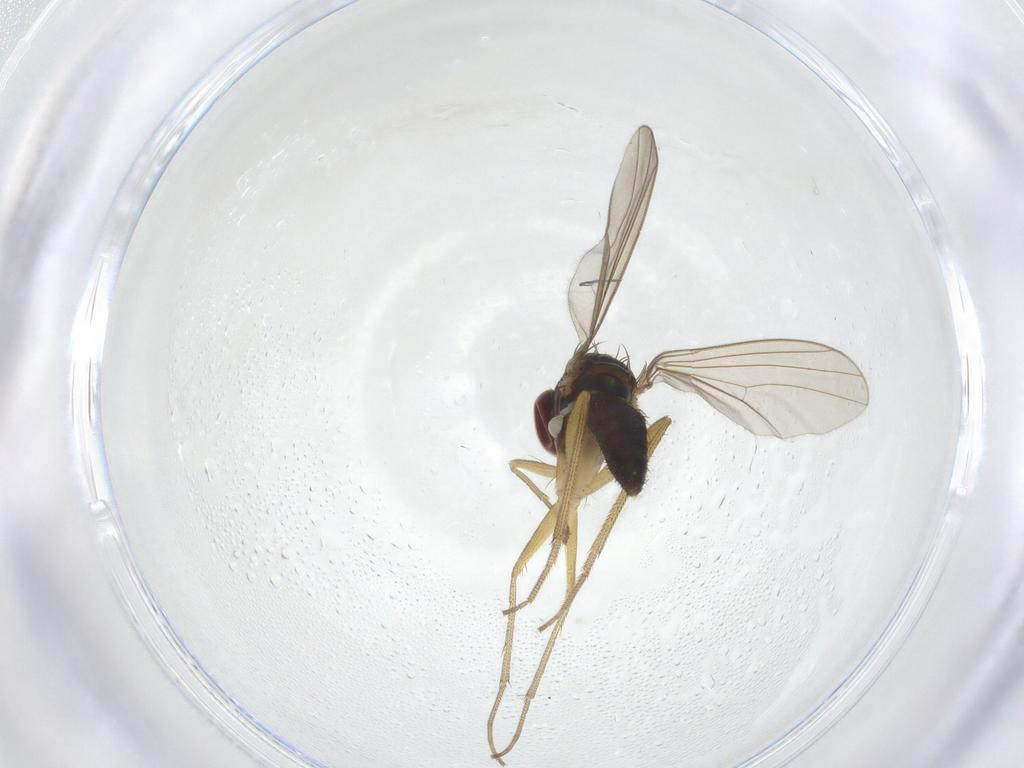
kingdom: Animalia
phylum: Arthropoda
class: Insecta
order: Diptera
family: Dolichopodidae
